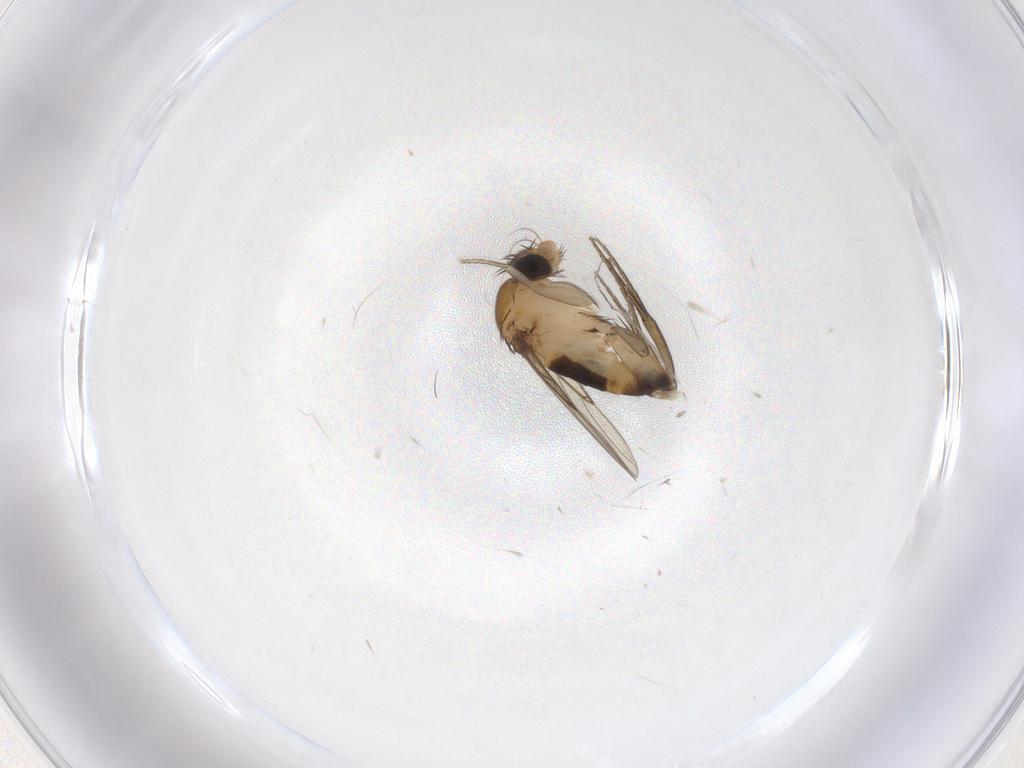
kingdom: Animalia
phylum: Arthropoda
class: Insecta
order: Diptera
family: Phoridae
